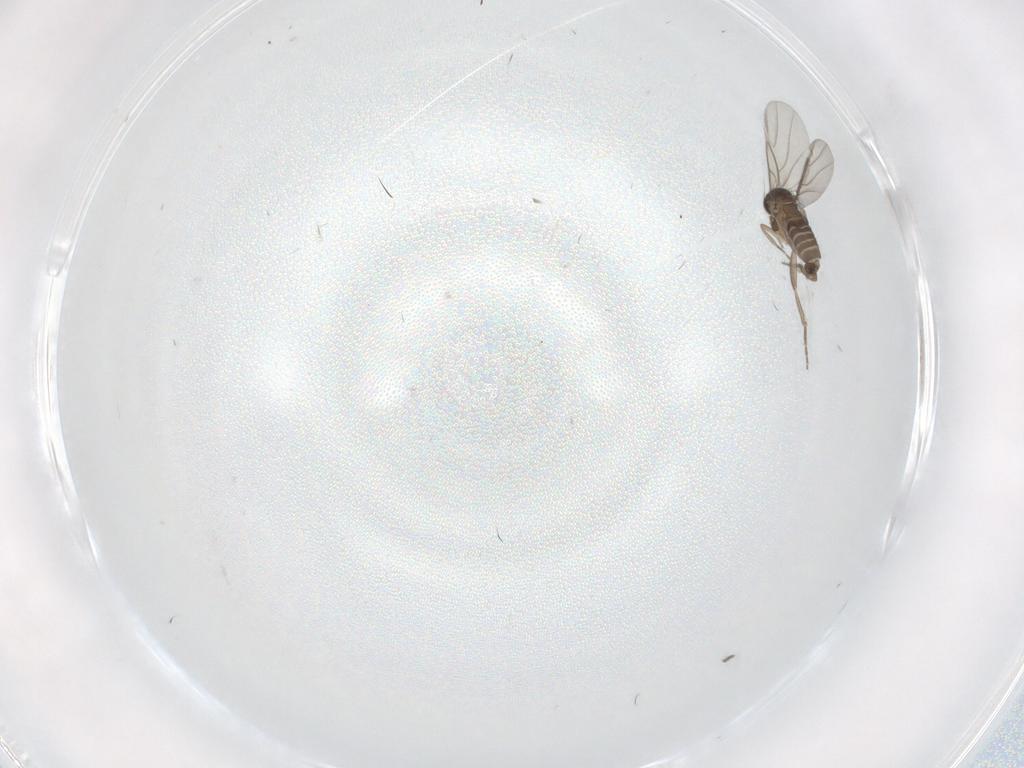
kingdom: Animalia
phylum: Arthropoda
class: Insecta
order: Diptera
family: Phoridae
